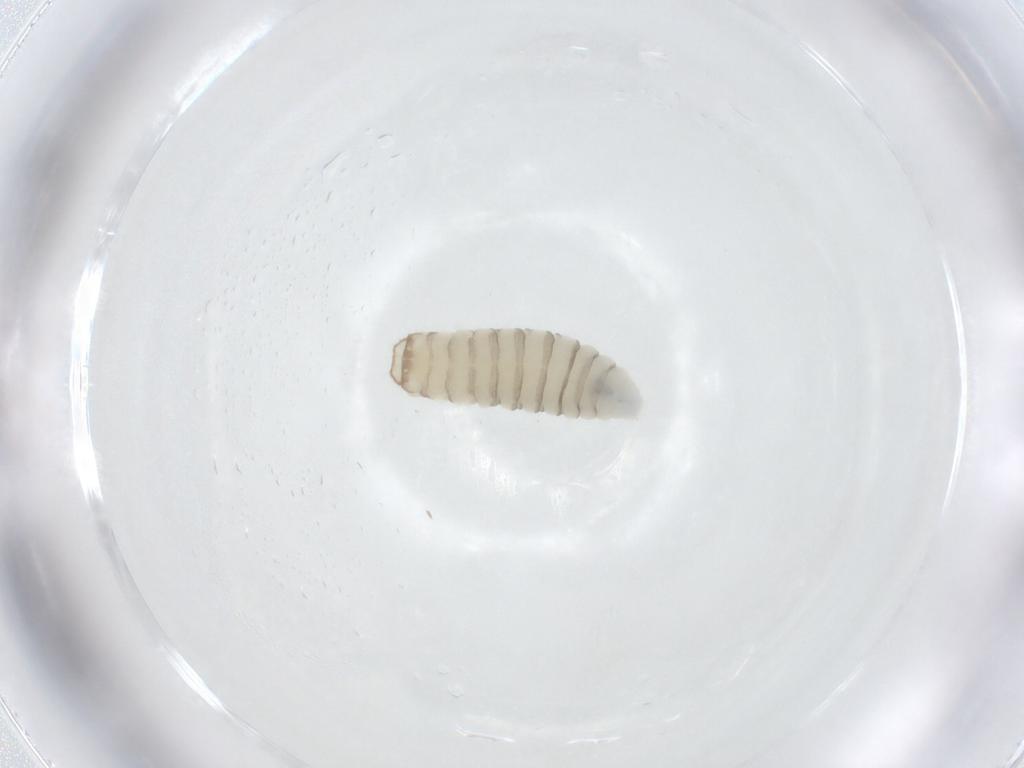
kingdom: Animalia
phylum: Arthropoda
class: Insecta
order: Diptera
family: Sarcophagidae
